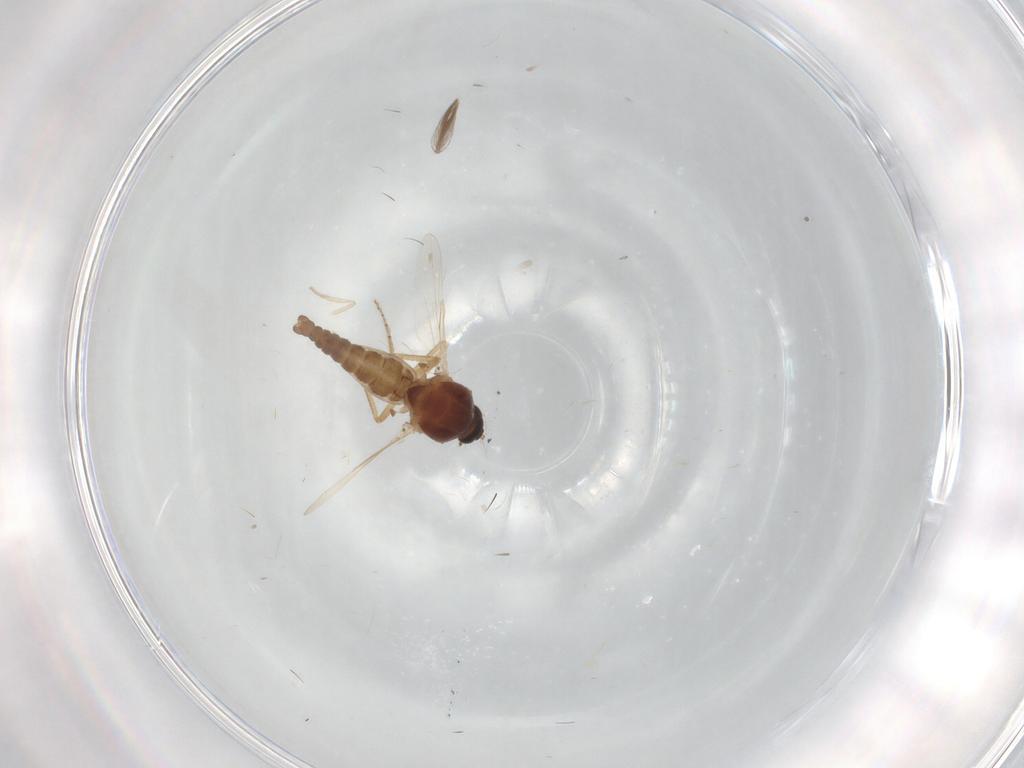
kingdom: Animalia
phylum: Arthropoda
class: Insecta
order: Diptera
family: Ceratopogonidae
